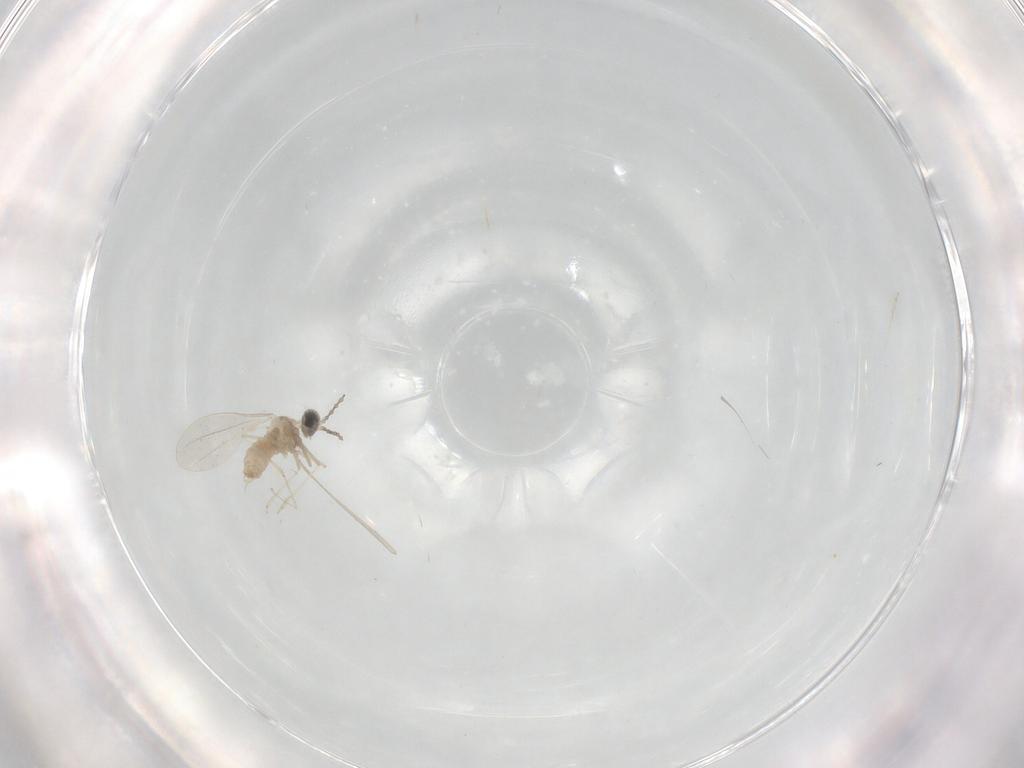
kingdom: Animalia
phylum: Arthropoda
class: Insecta
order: Diptera
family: Cecidomyiidae
